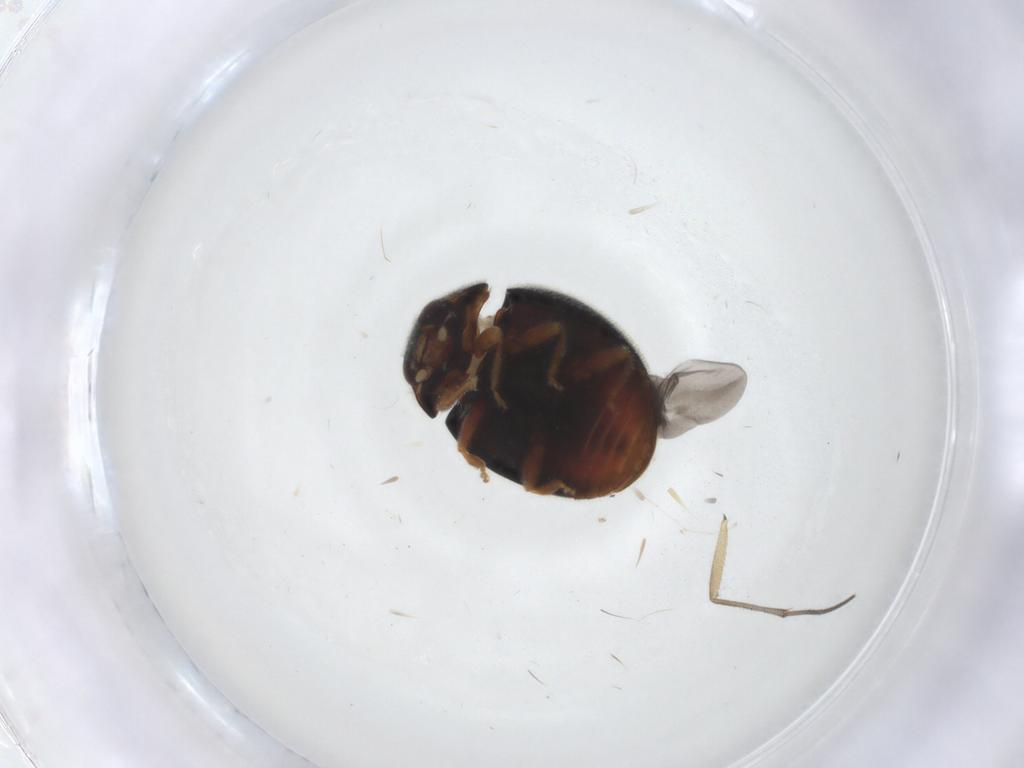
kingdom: Animalia
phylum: Arthropoda
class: Insecta
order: Coleoptera
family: Coccinellidae
